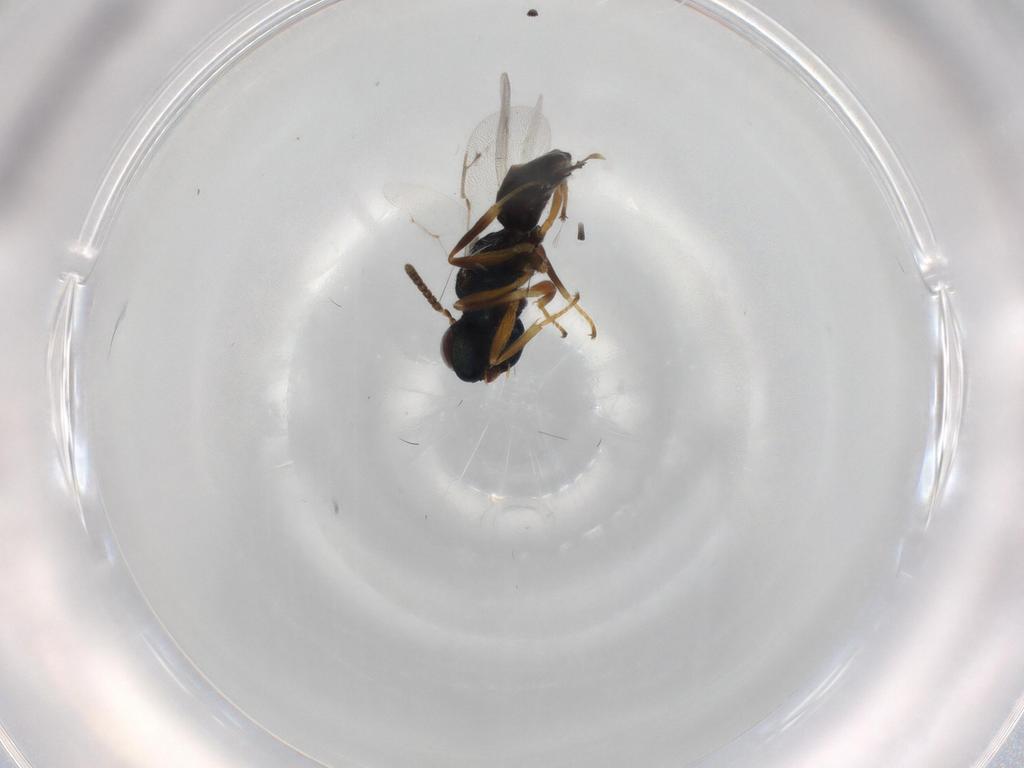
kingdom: Animalia
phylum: Arthropoda
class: Insecta
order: Hymenoptera
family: Pteromalidae
